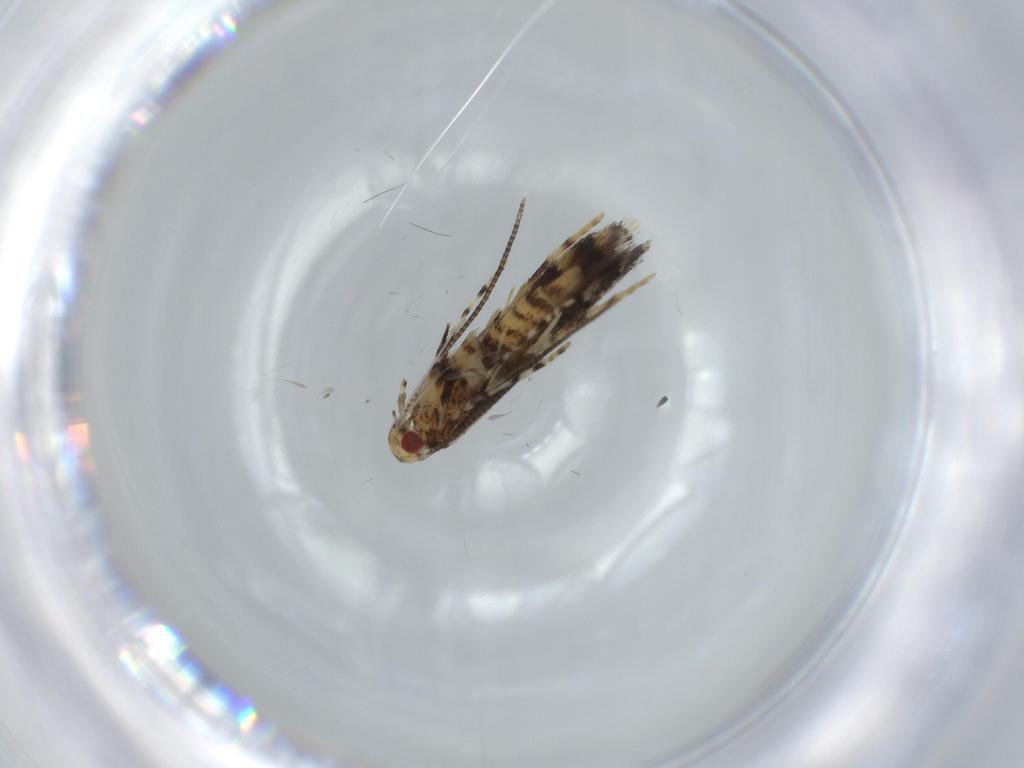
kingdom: Animalia
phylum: Arthropoda
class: Insecta
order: Lepidoptera
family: Gracillariidae
